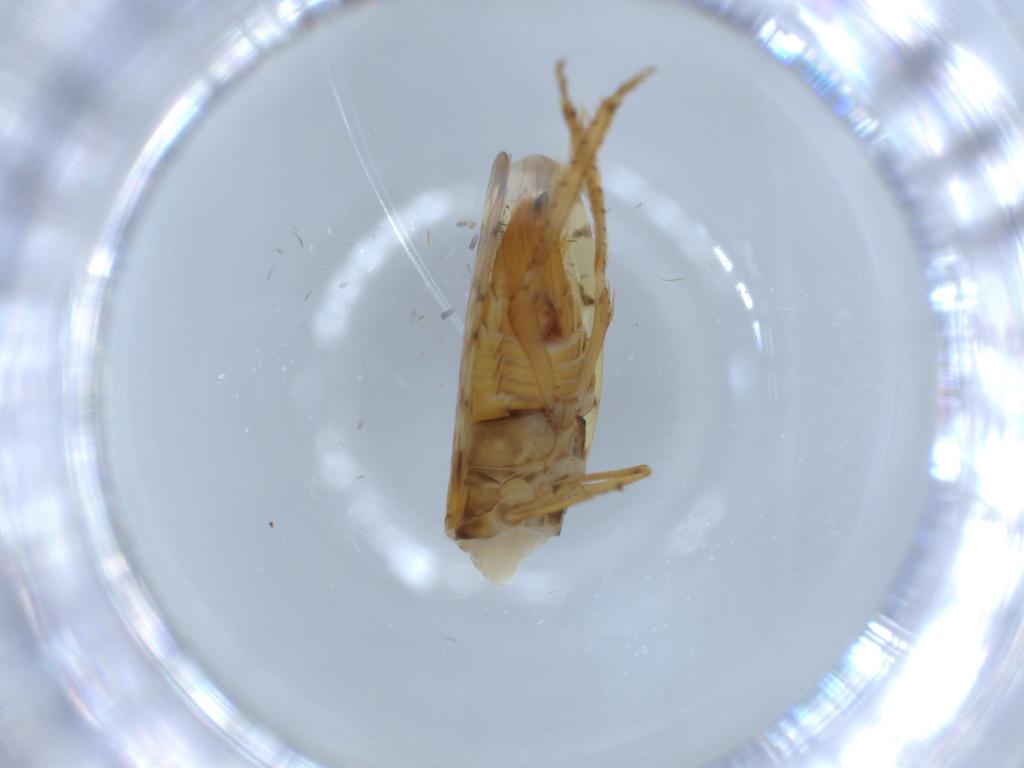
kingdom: Animalia
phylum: Arthropoda
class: Insecta
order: Hemiptera
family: Cicadellidae
